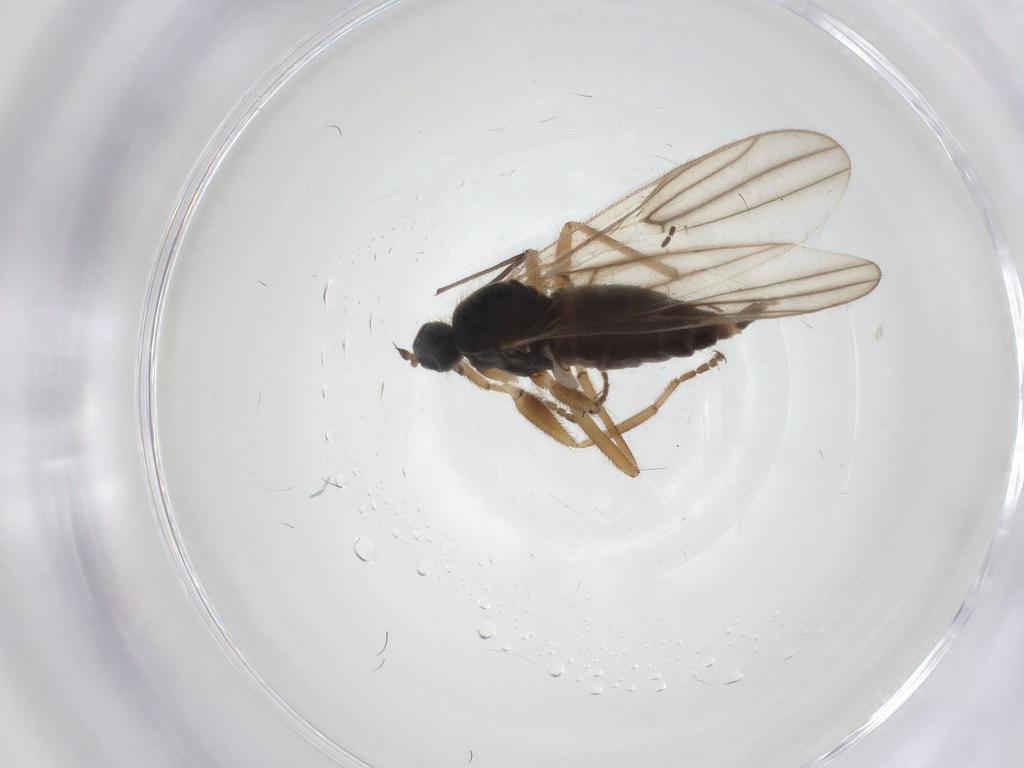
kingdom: Animalia
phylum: Arthropoda
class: Insecta
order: Diptera
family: Hybotidae
